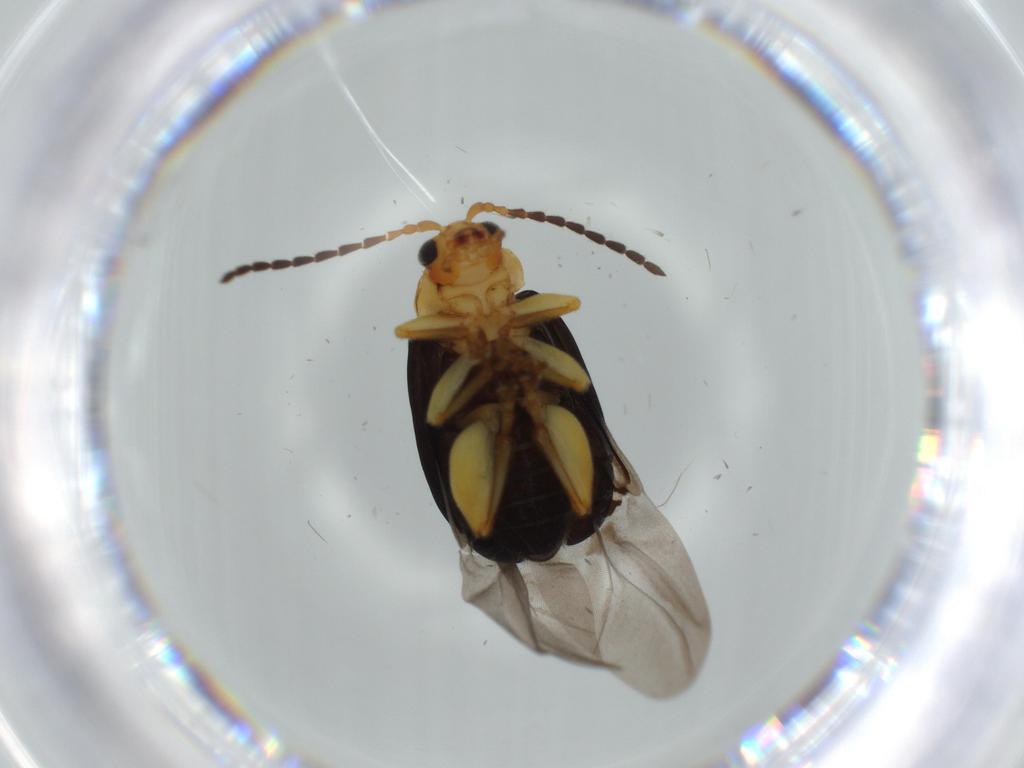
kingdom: Animalia
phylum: Arthropoda
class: Insecta
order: Coleoptera
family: Chrysomelidae
